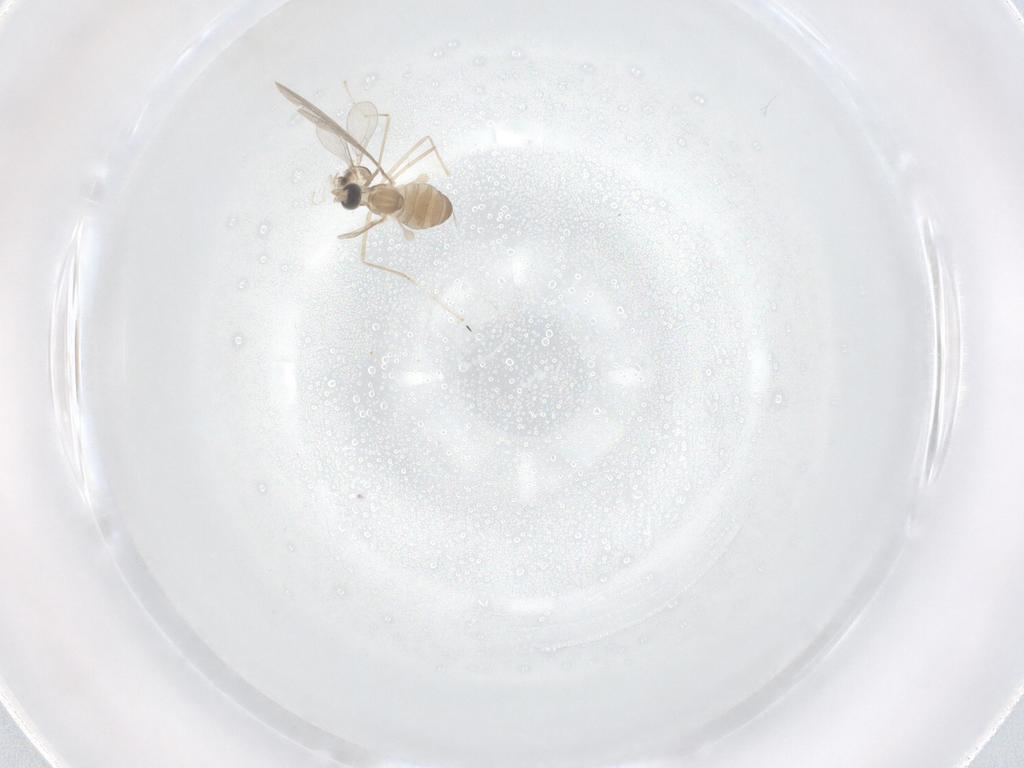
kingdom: Animalia
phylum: Arthropoda
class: Insecta
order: Diptera
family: Cecidomyiidae
